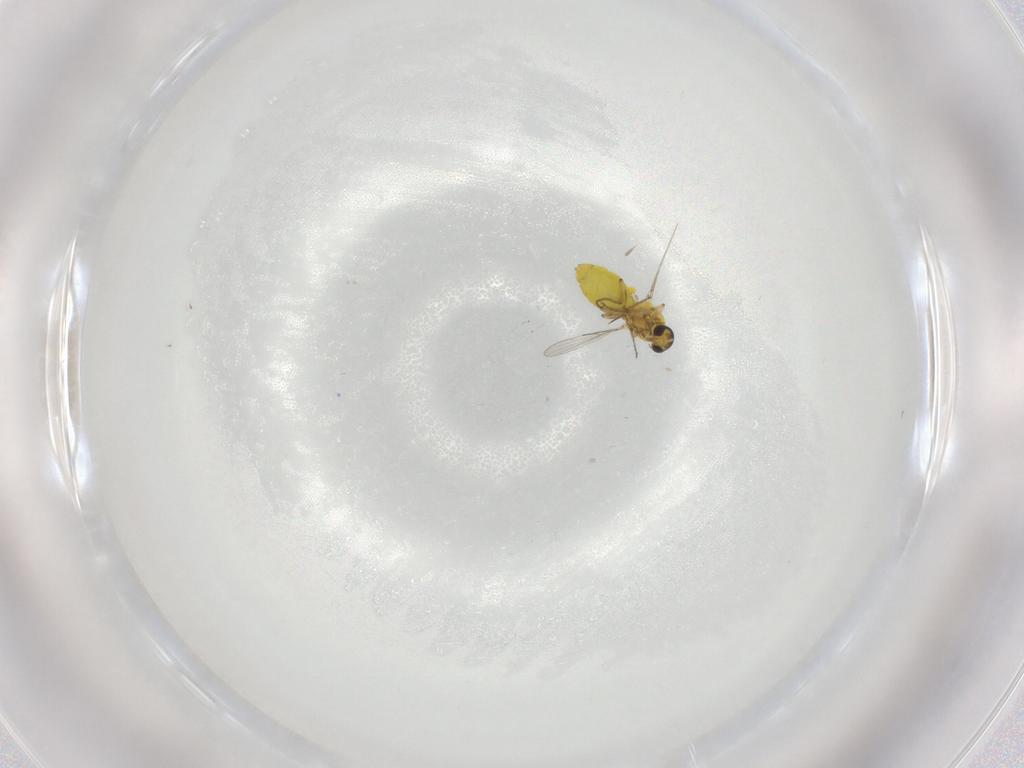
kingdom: Animalia
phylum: Arthropoda
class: Insecta
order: Diptera
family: Ceratopogonidae
